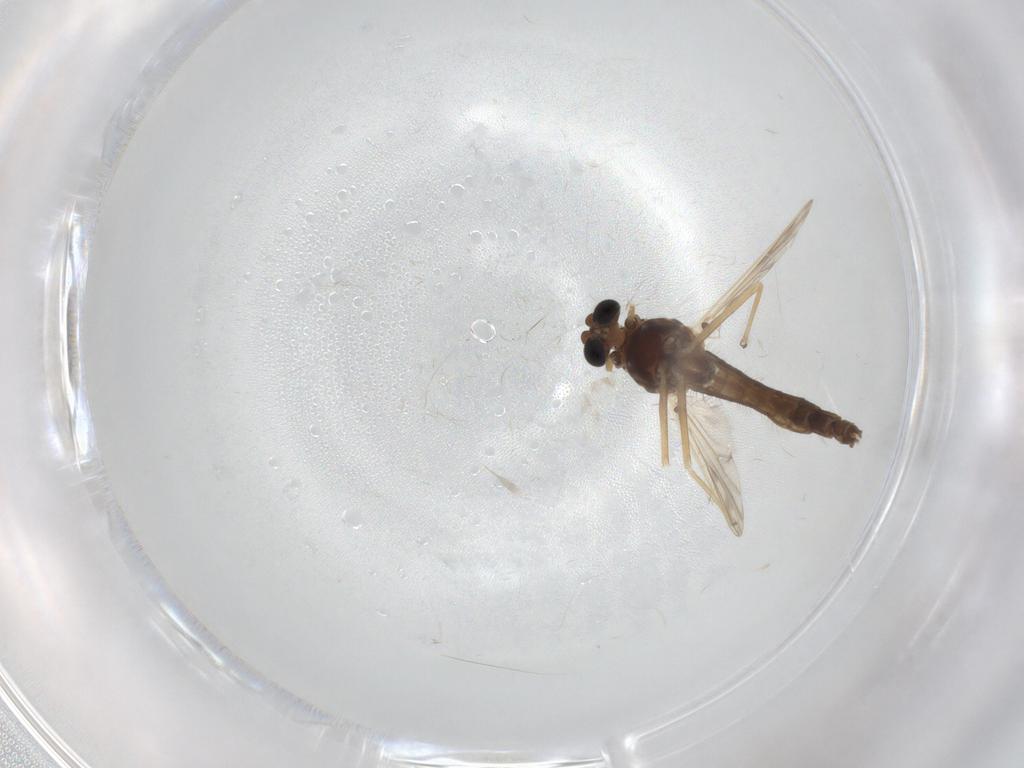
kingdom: Animalia
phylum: Arthropoda
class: Insecta
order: Diptera
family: Chironomidae
